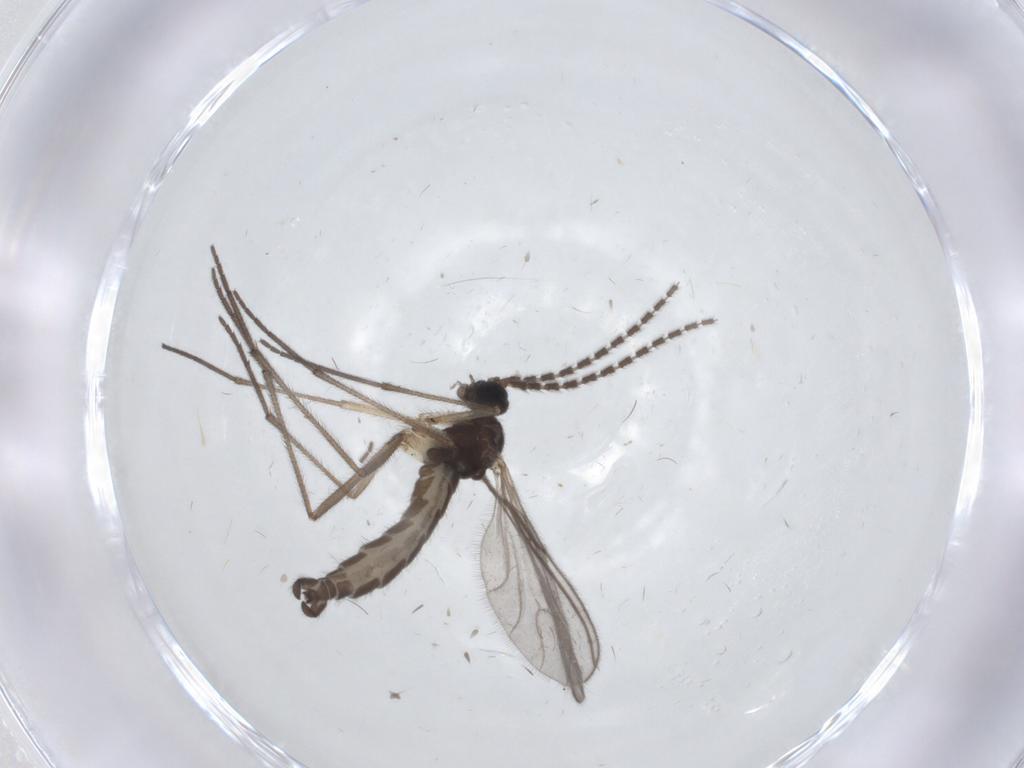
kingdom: Animalia
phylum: Arthropoda
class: Insecta
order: Diptera
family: Sciaridae
